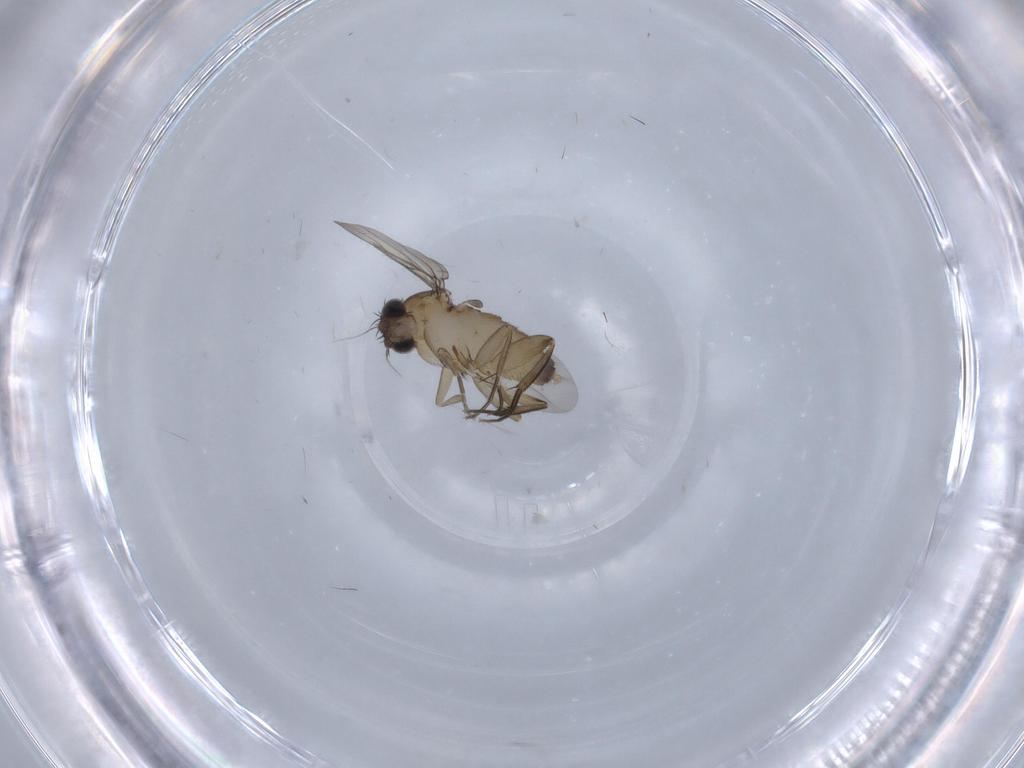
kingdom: Animalia
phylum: Arthropoda
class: Insecta
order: Diptera
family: Phoridae
